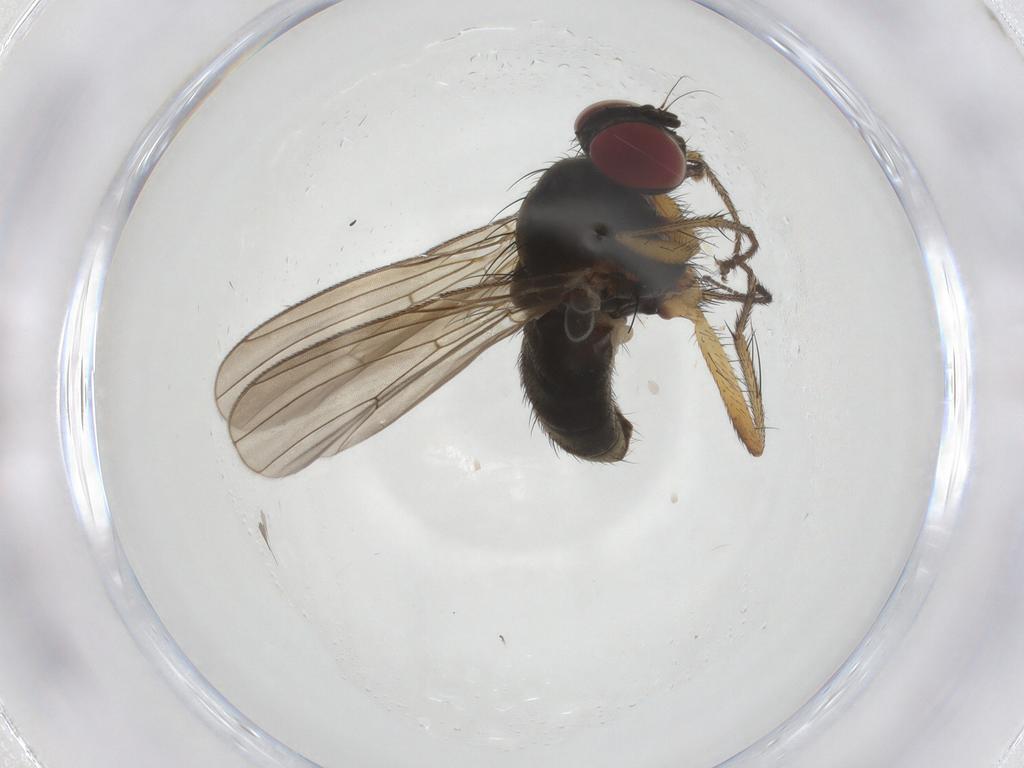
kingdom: Animalia
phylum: Arthropoda
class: Insecta
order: Diptera
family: Muscidae
